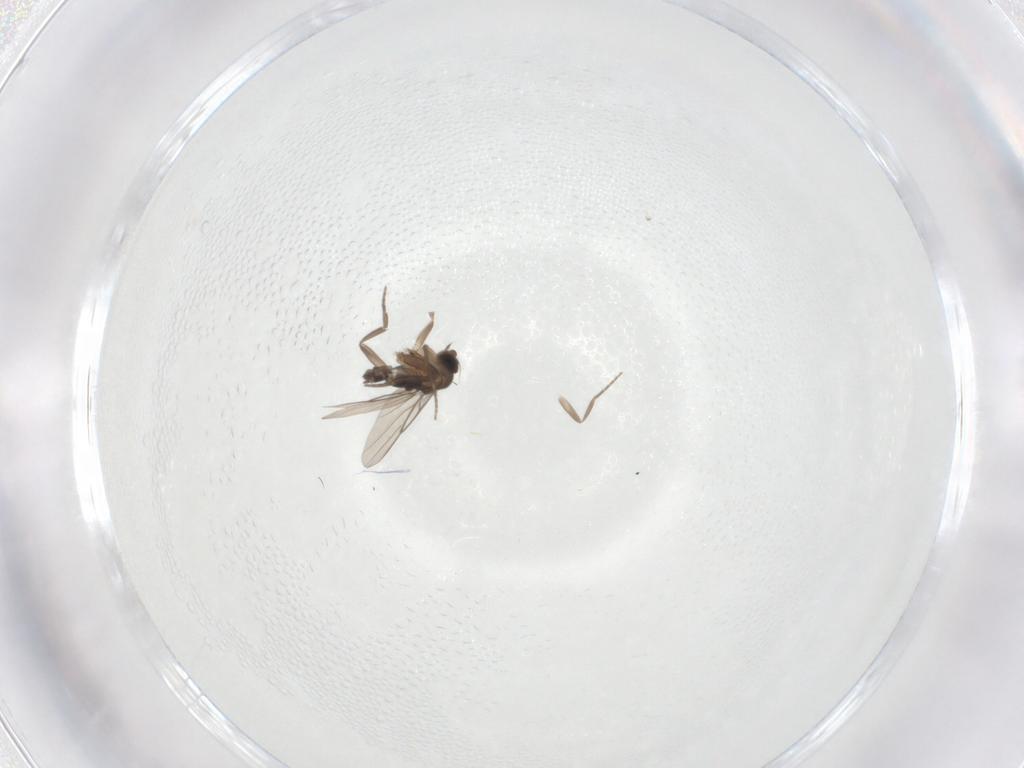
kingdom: Animalia
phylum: Arthropoda
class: Insecta
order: Diptera
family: Phoridae
